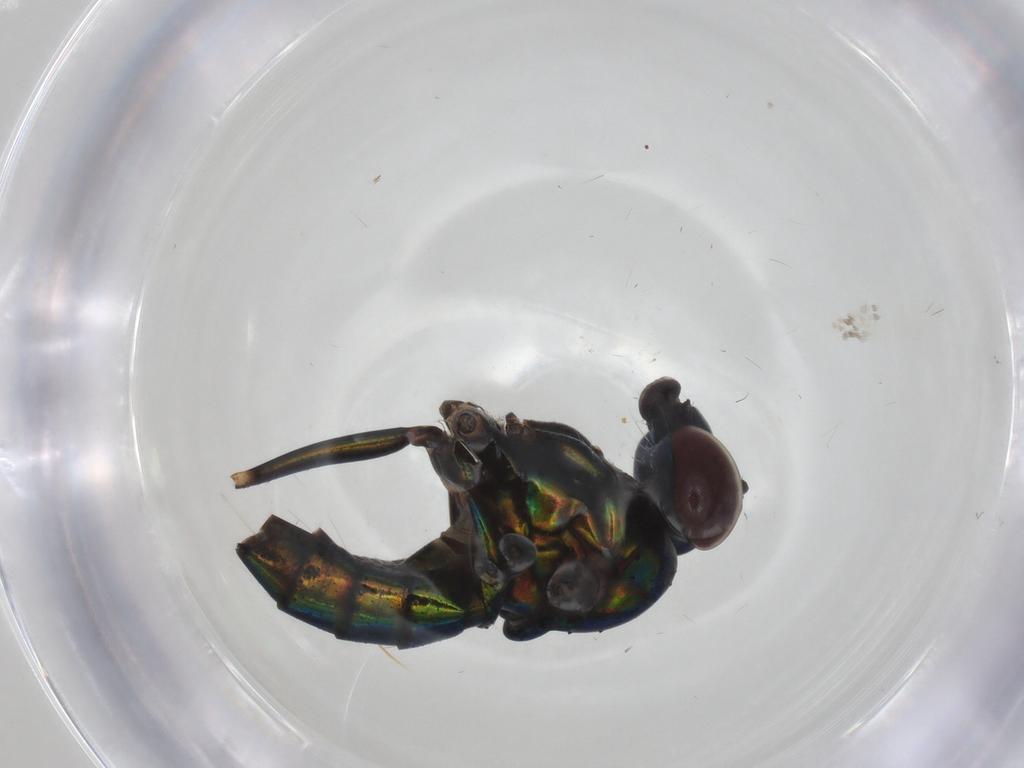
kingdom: Animalia
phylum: Arthropoda
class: Insecta
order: Diptera
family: Dolichopodidae
